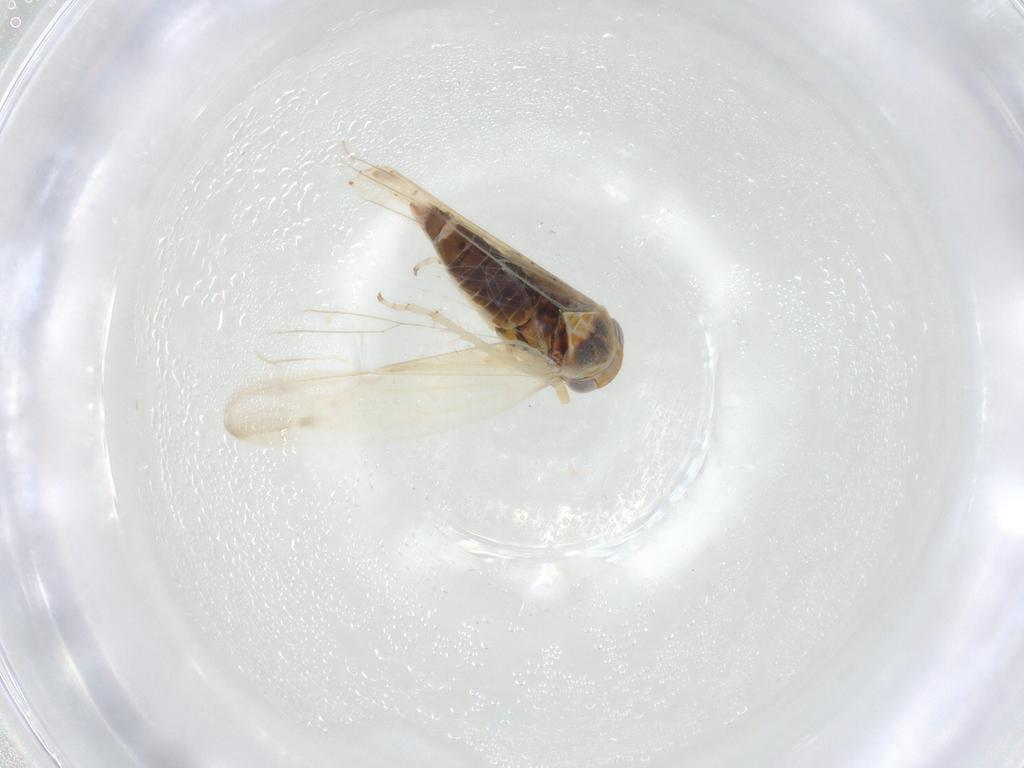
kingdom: Animalia
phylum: Arthropoda
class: Insecta
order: Hemiptera
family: Cicadellidae
